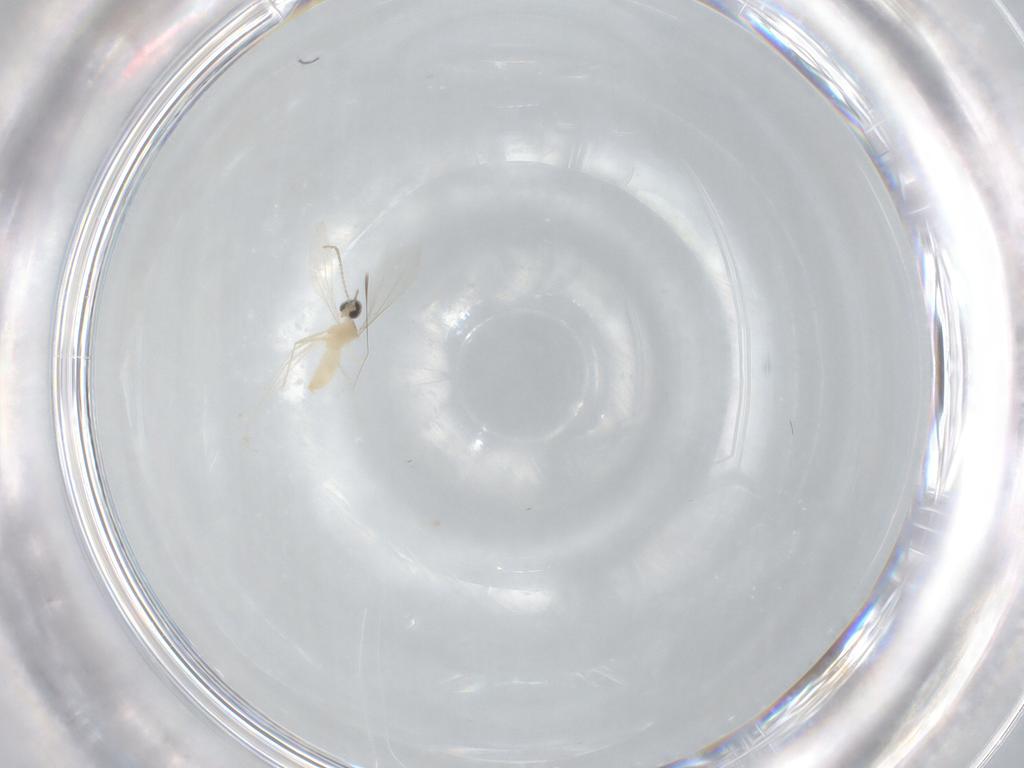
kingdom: Animalia
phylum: Arthropoda
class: Insecta
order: Diptera
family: Cecidomyiidae
